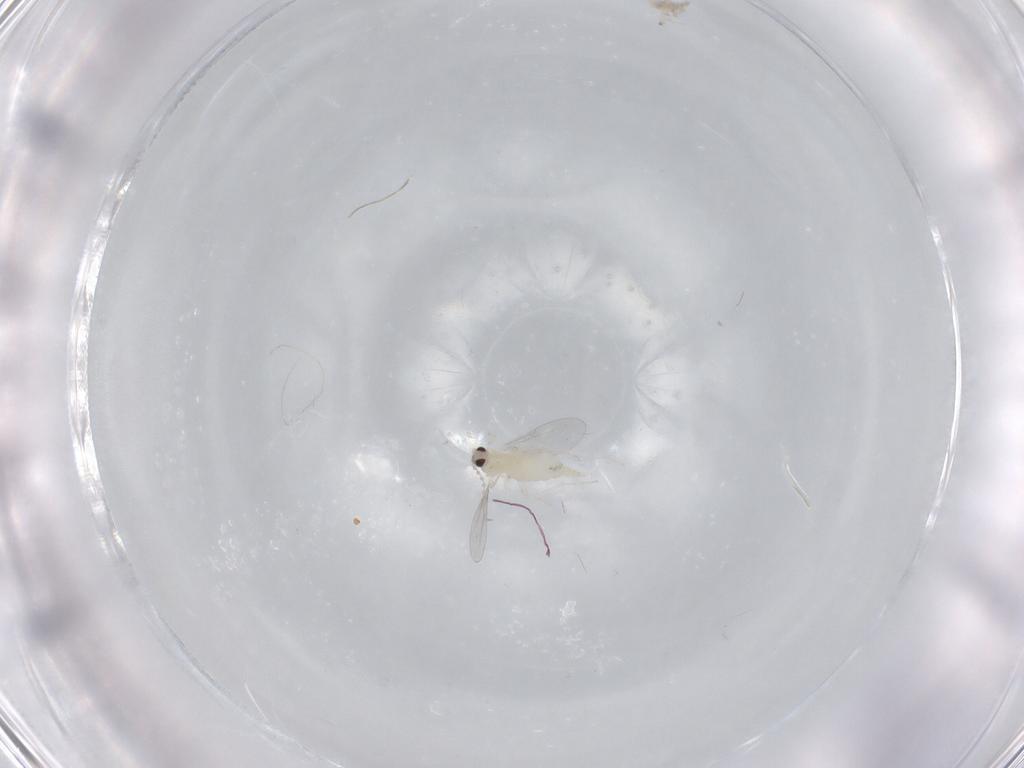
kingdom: Animalia
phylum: Arthropoda
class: Insecta
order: Diptera
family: Cecidomyiidae
